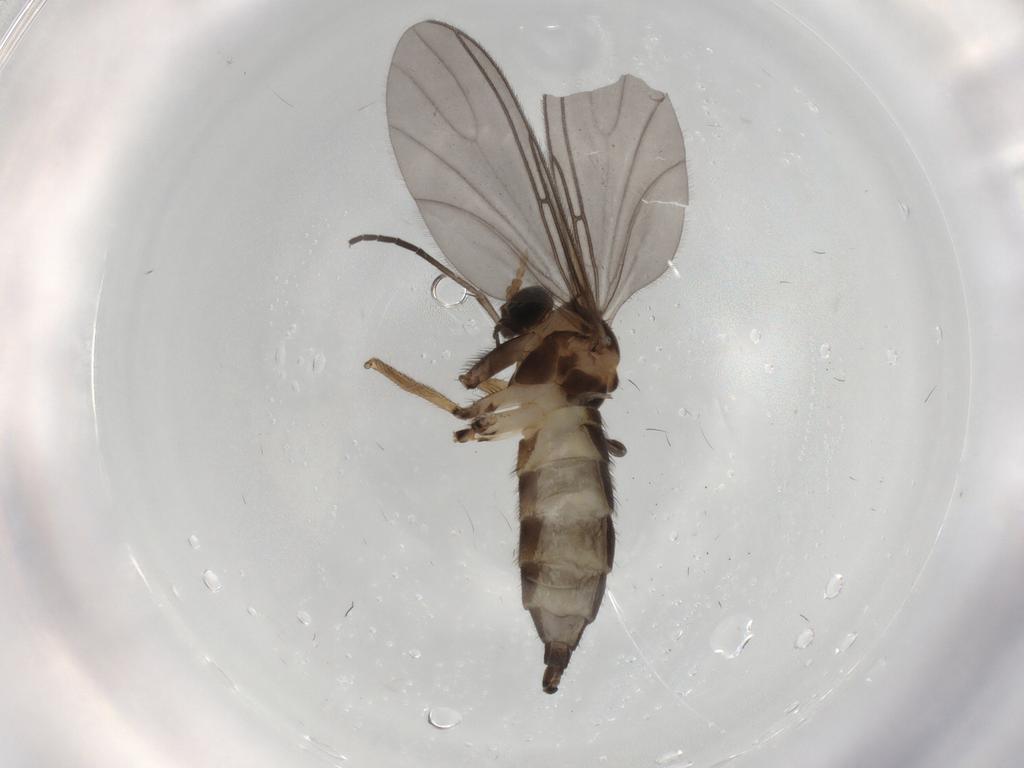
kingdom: Animalia
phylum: Arthropoda
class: Insecta
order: Diptera
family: Sciaridae
